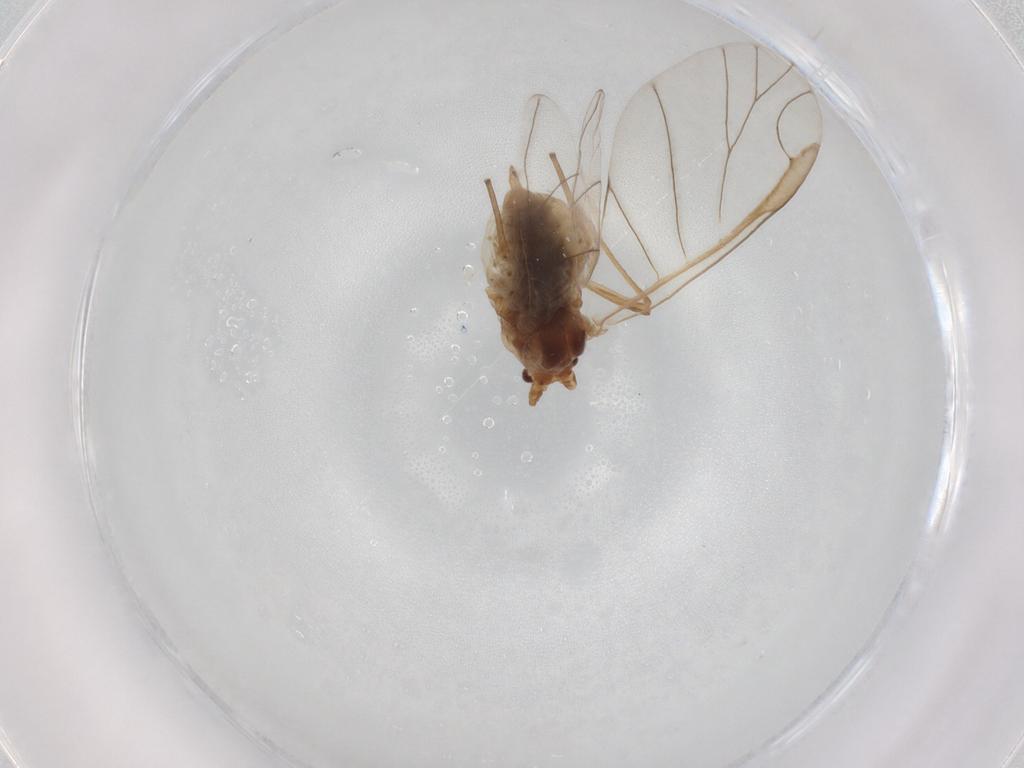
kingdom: Animalia
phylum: Arthropoda
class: Insecta
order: Hemiptera
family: Aphididae
